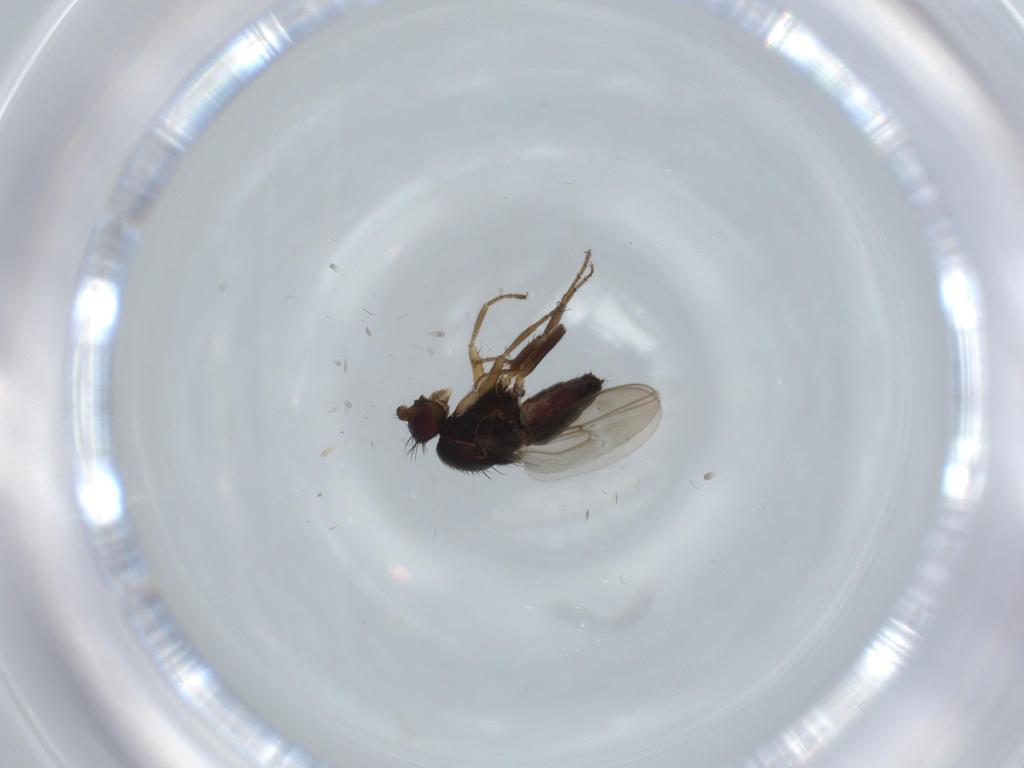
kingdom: Animalia
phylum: Arthropoda
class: Insecta
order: Diptera
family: Sphaeroceridae
